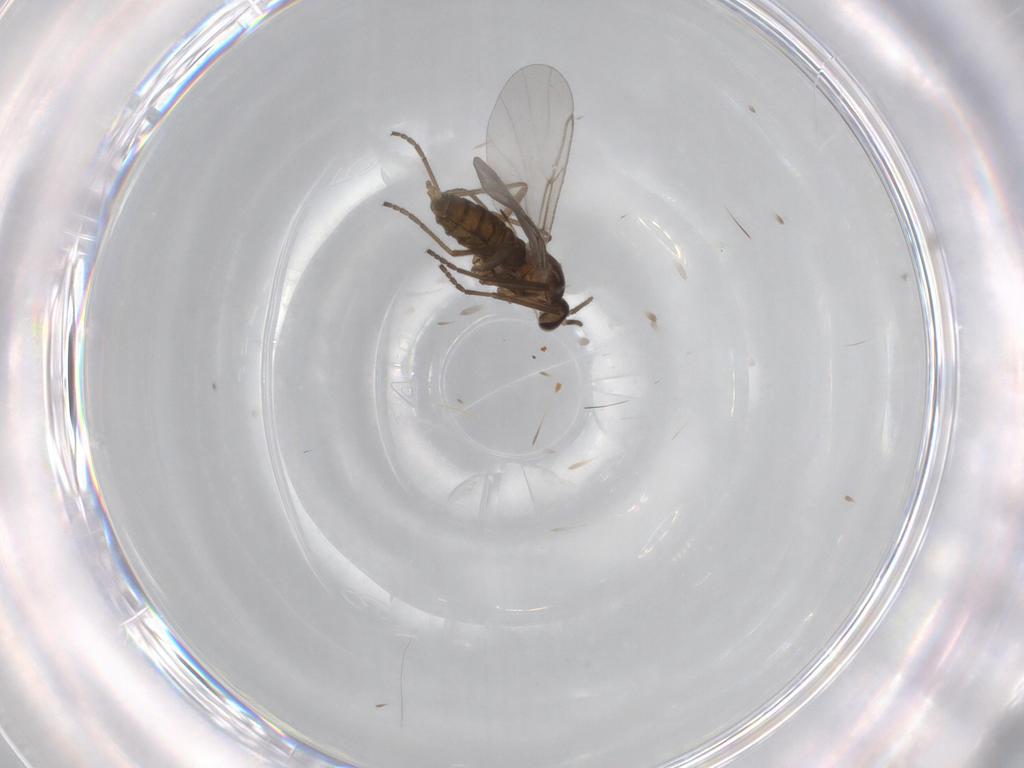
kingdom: Animalia
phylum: Arthropoda
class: Insecta
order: Diptera
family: Cecidomyiidae
